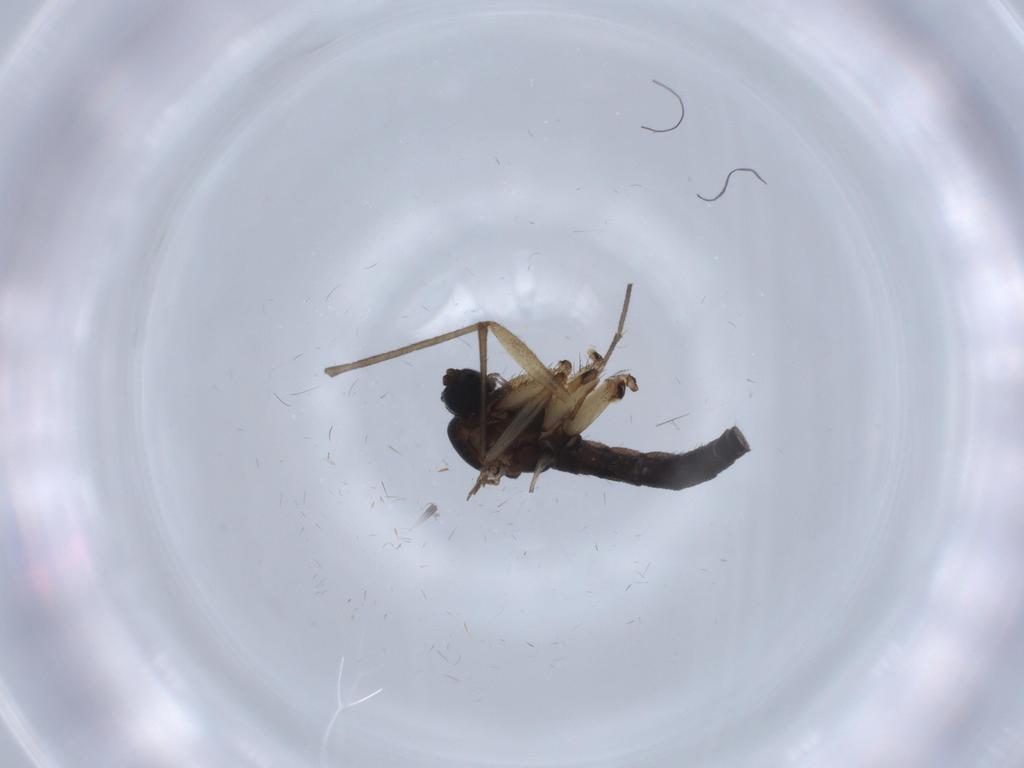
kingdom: Animalia
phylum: Arthropoda
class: Insecta
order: Diptera
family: Sciaridae
